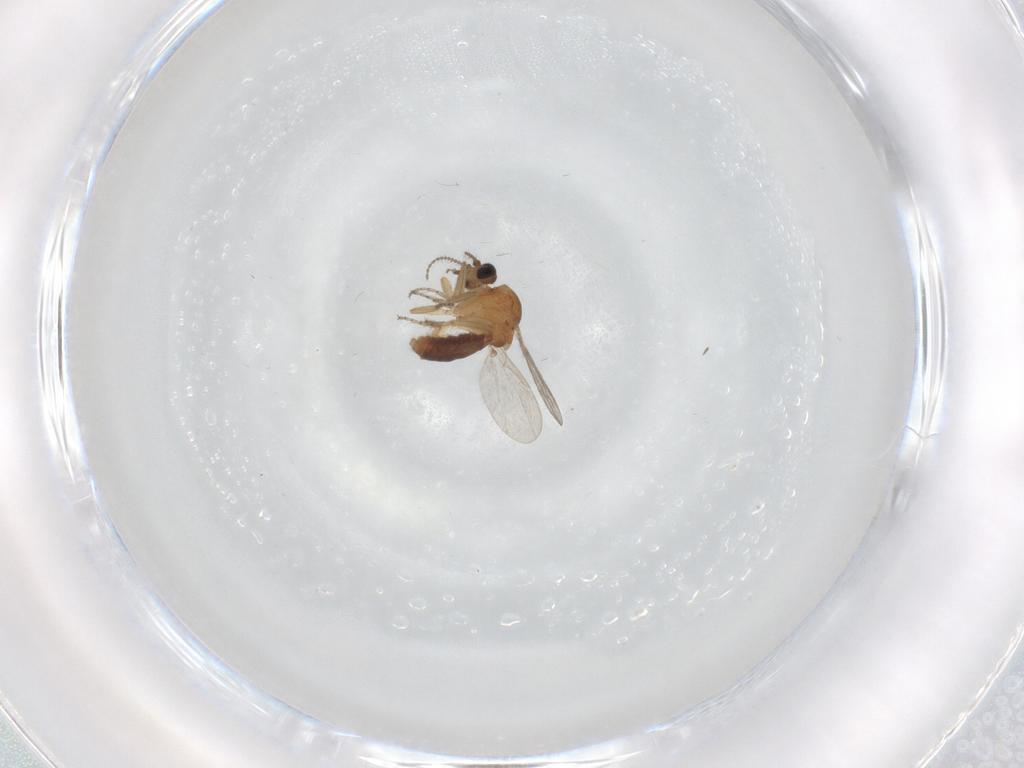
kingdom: Animalia
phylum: Arthropoda
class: Insecta
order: Diptera
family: Ceratopogonidae
